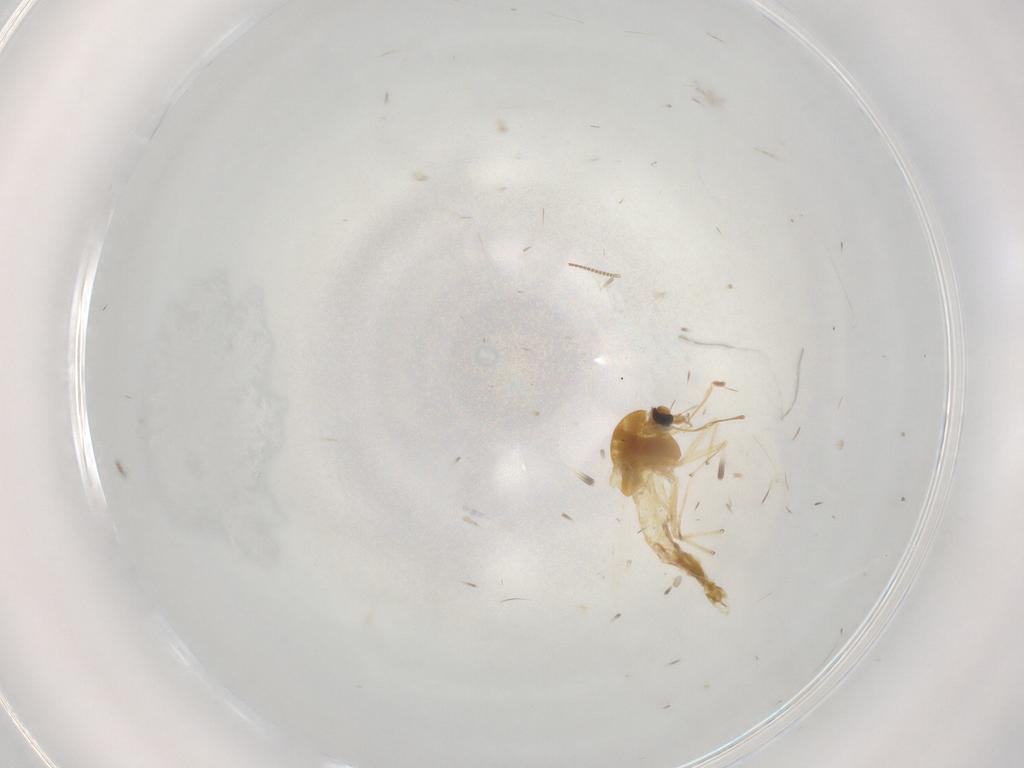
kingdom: Animalia
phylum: Arthropoda
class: Insecta
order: Diptera
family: Chironomidae
